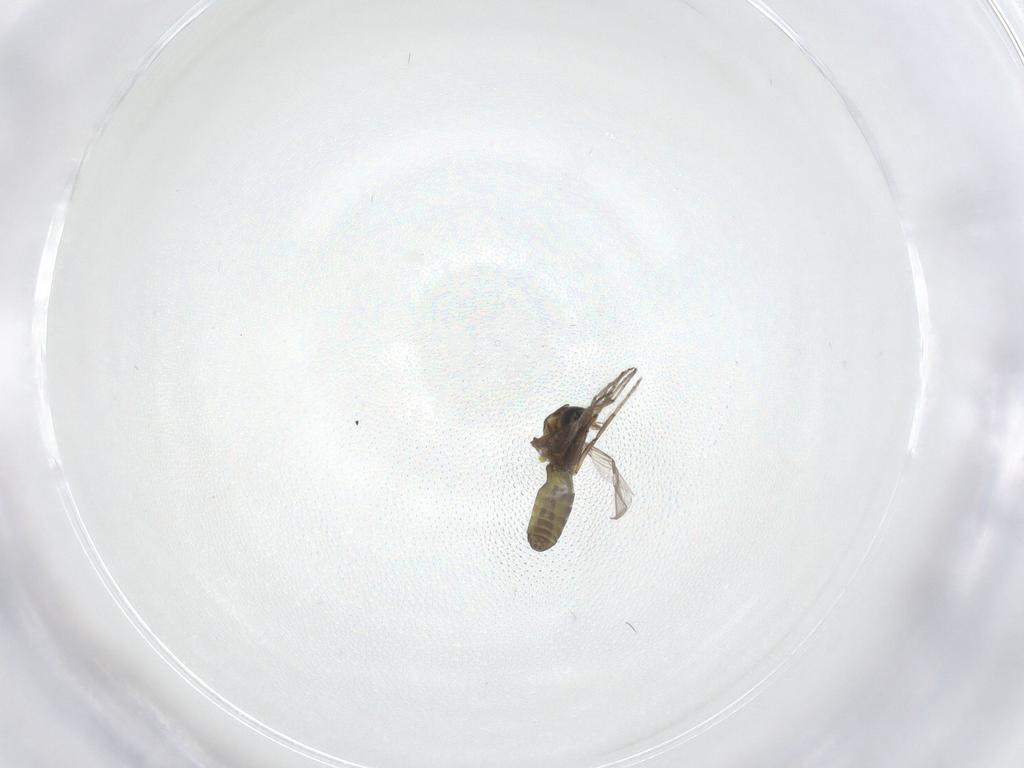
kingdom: Animalia
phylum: Arthropoda
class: Insecta
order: Diptera
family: Ceratopogonidae
